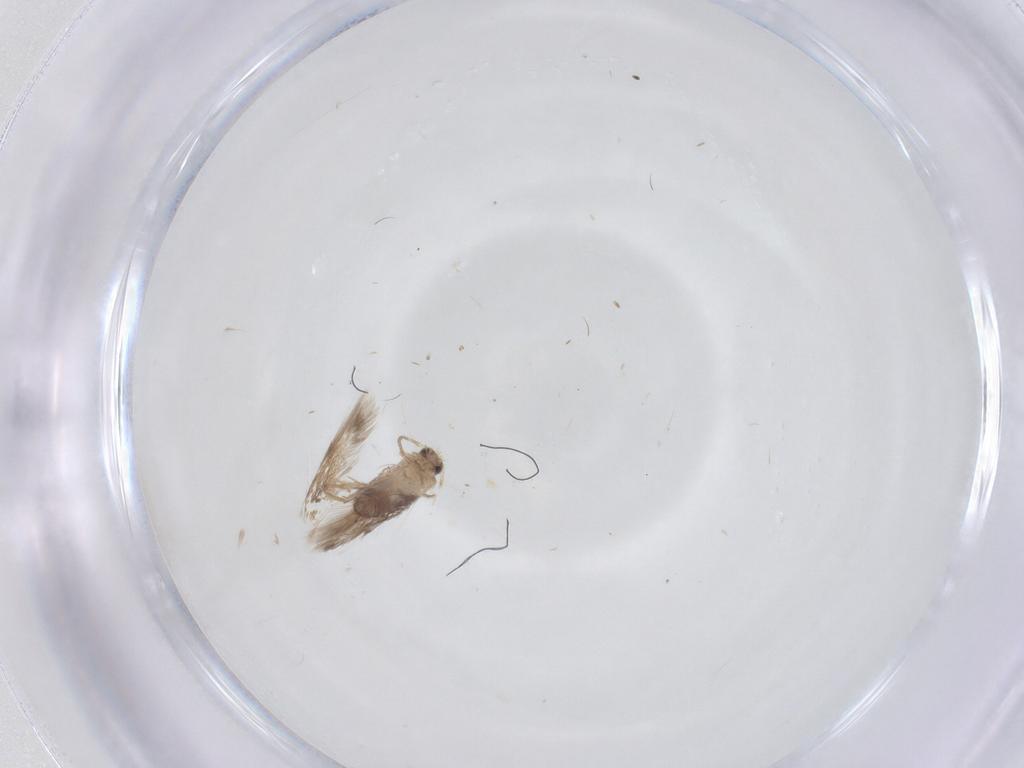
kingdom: Animalia
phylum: Arthropoda
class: Insecta
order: Lepidoptera
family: Nepticulidae
